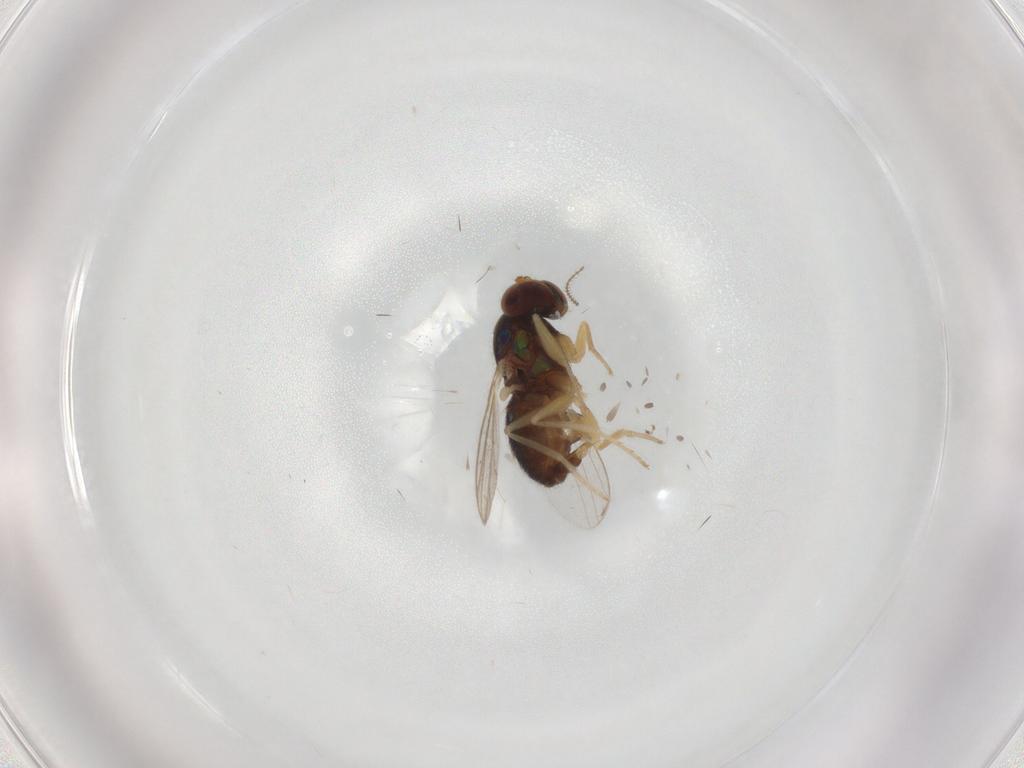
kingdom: Animalia
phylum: Arthropoda
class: Insecta
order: Diptera
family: Dolichopodidae
